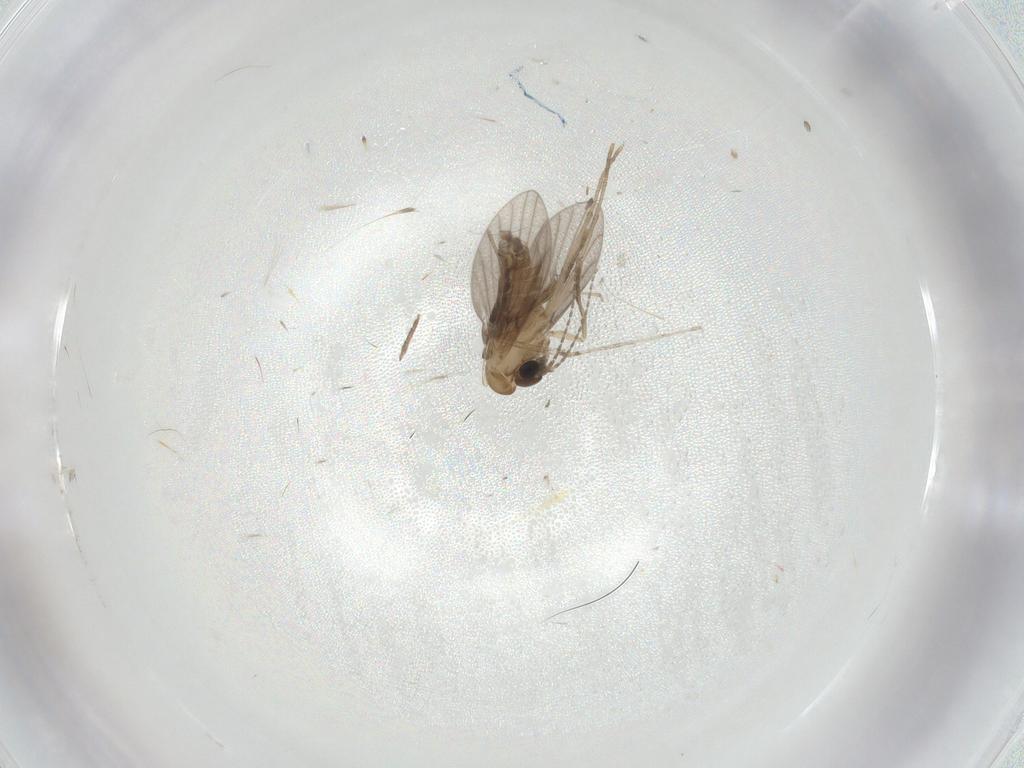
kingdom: Animalia
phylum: Arthropoda
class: Insecta
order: Diptera
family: Cecidomyiidae
